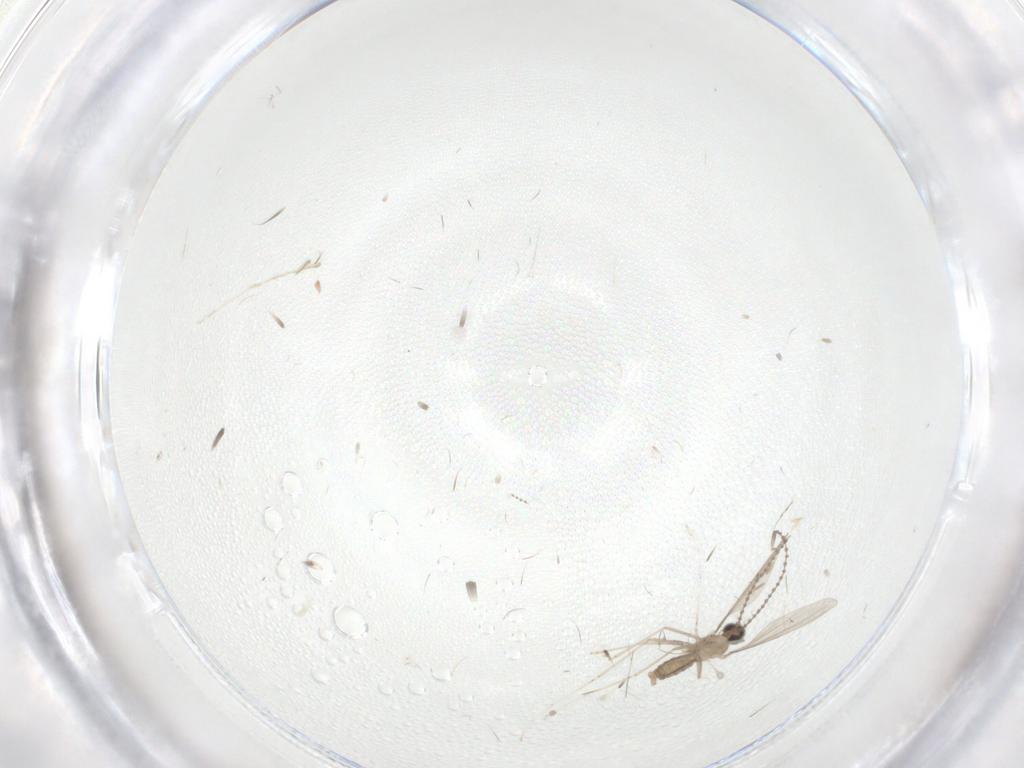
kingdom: Animalia
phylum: Arthropoda
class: Insecta
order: Diptera
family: Cecidomyiidae
